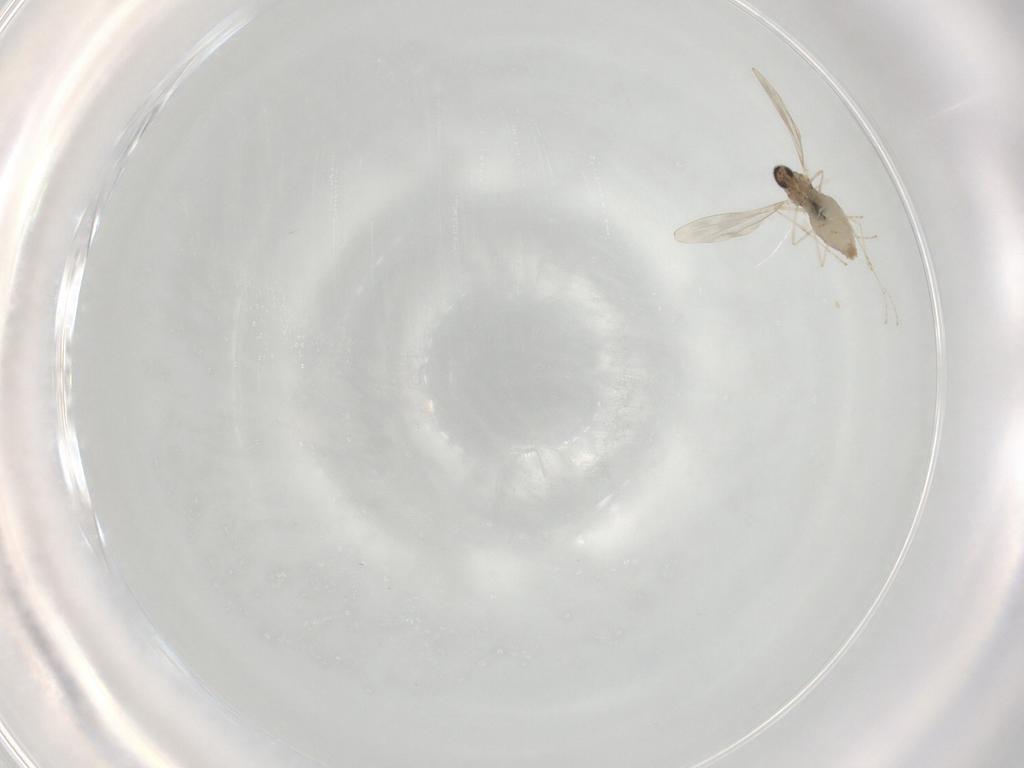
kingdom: Animalia
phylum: Arthropoda
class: Insecta
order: Diptera
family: Cecidomyiidae
